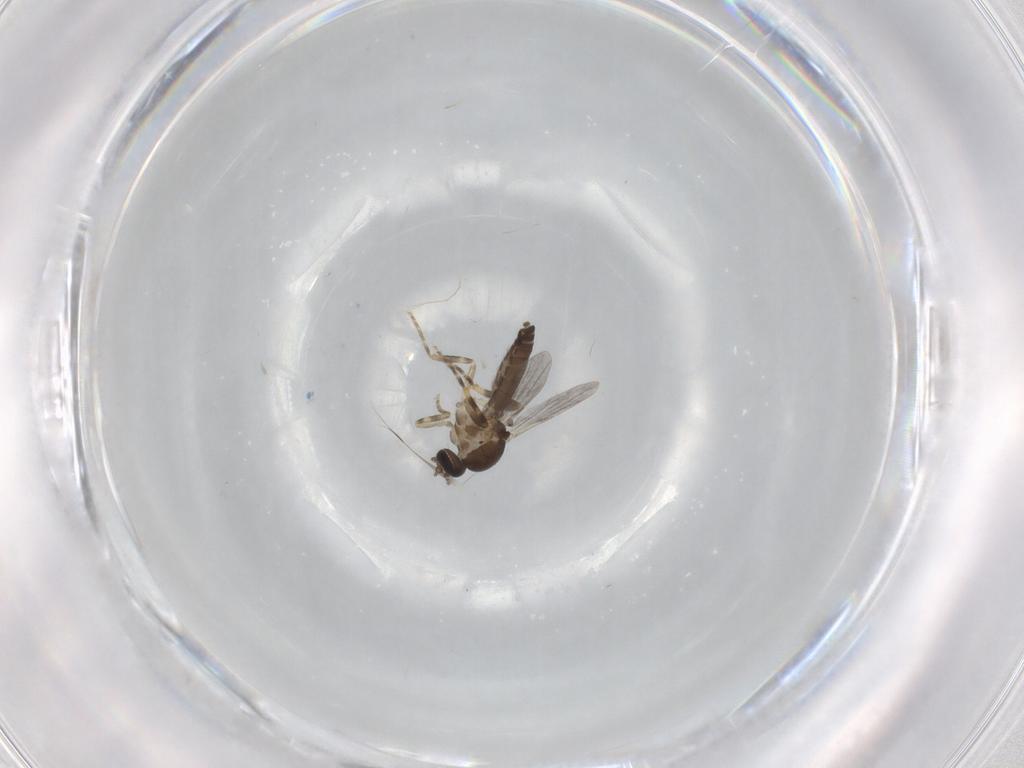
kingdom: Animalia
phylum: Arthropoda
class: Insecta
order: Diptera
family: Ceratopogonidae
